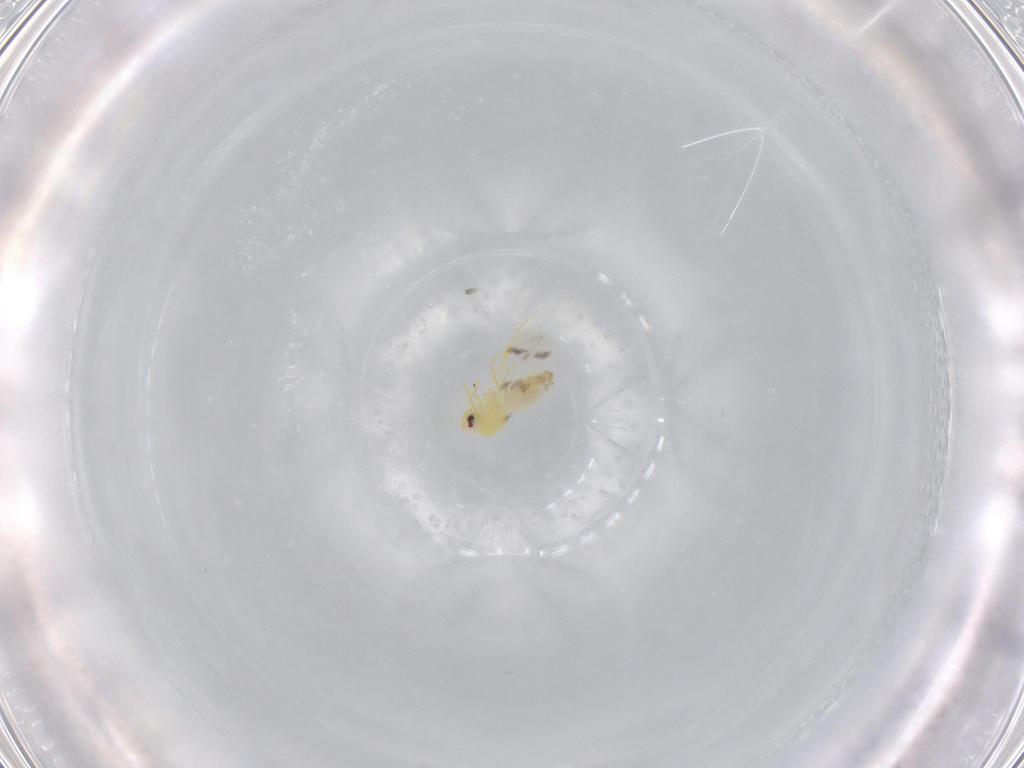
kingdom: Animalia
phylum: Arthropoda
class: Insecta
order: Hemiptera
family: Aleyrodidae
